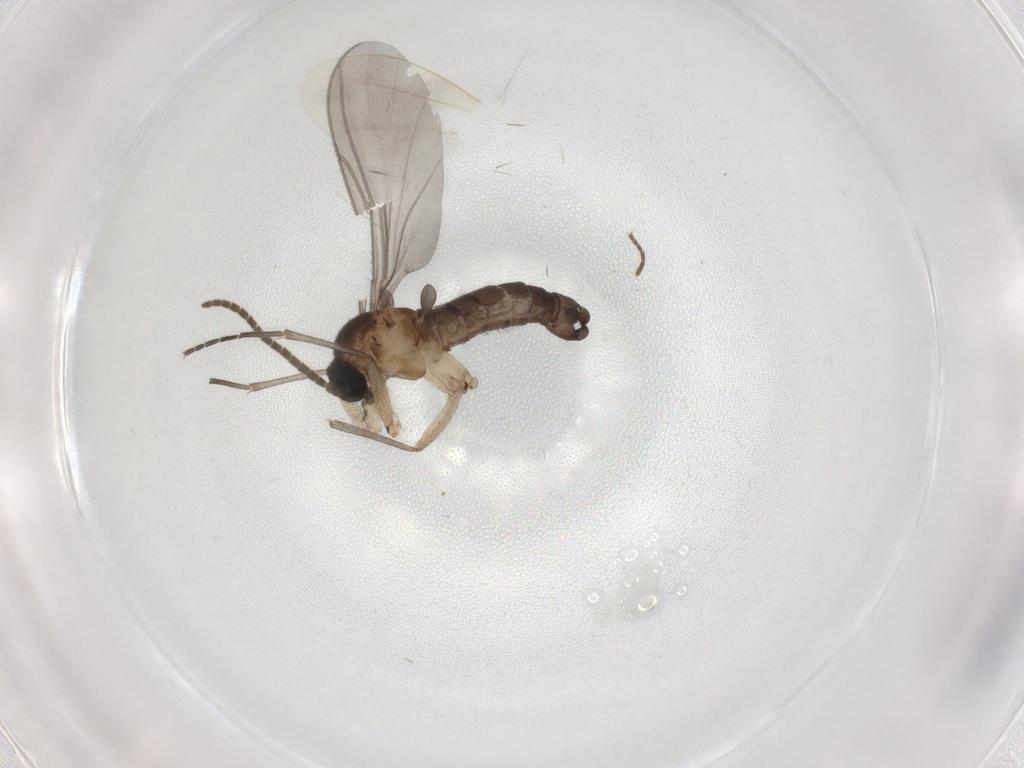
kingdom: Animalia
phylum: Arthropoda
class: Insecta
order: Diptera
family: Sphaeroceridae
